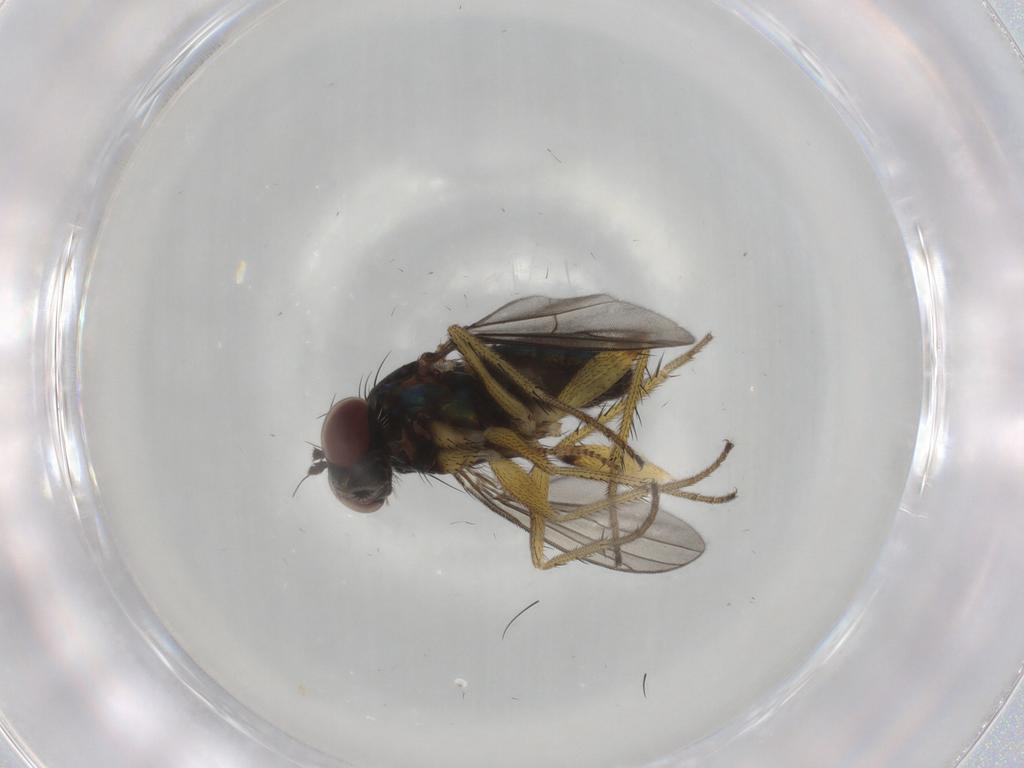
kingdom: Animalia
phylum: Arthropoda
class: Insecta
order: Diptera
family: Dolichopodidae
